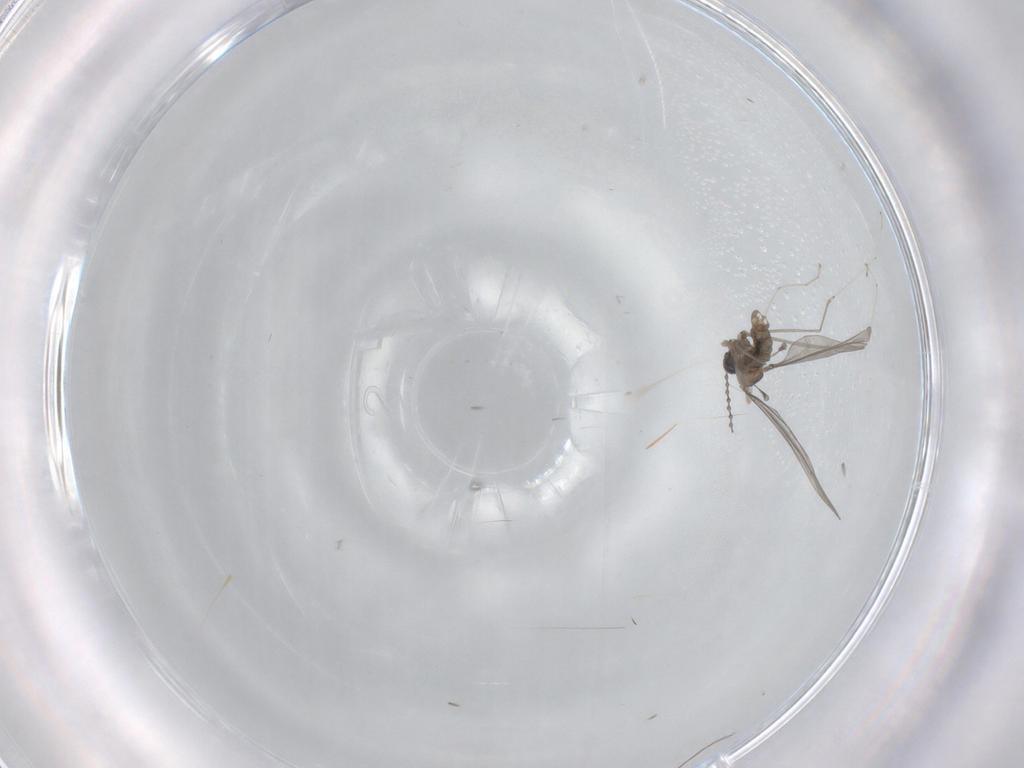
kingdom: Animalia
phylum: Arthropoda
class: Insecta
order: Diptera
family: Cecidomyiidae
